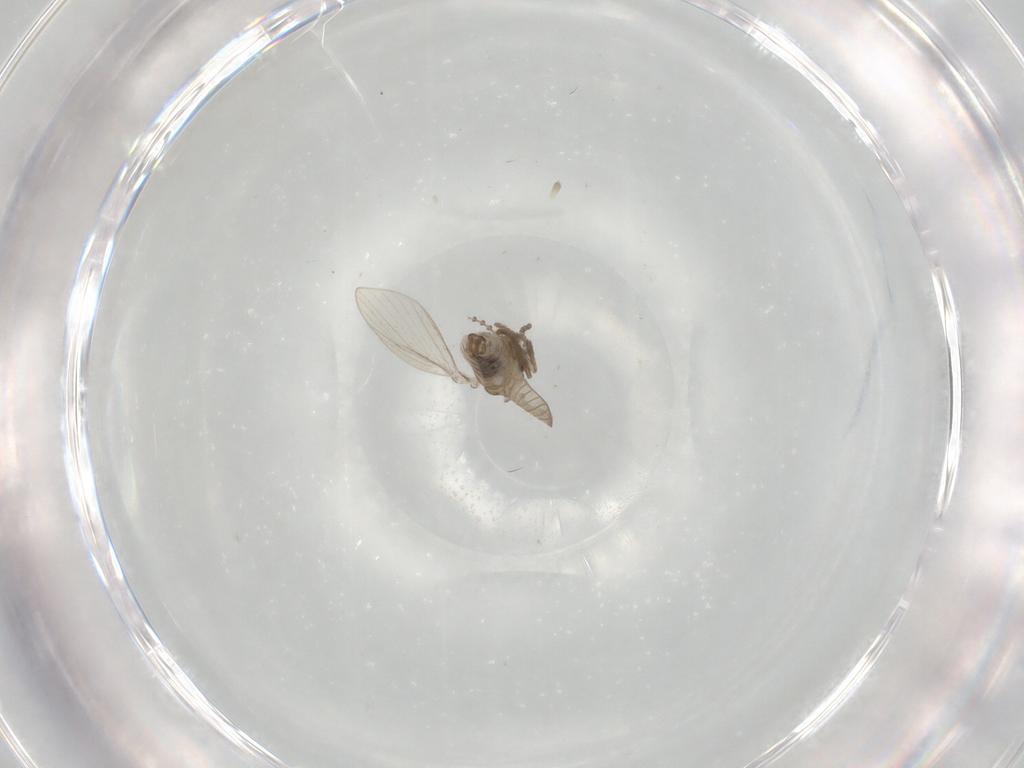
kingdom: Animalia
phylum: Arthropoda
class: Insecta
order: Diptera
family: Psychodidae
